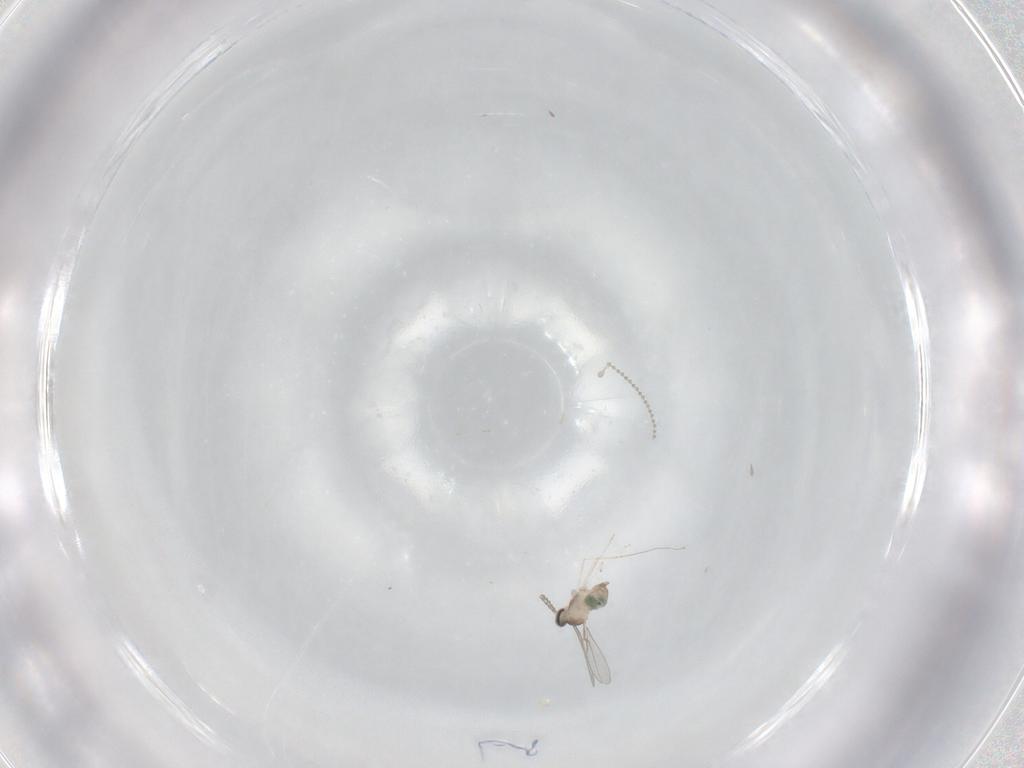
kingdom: Animalia
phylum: Arthropoda
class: Insecta
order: Diptera
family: Cecidomyiidae
